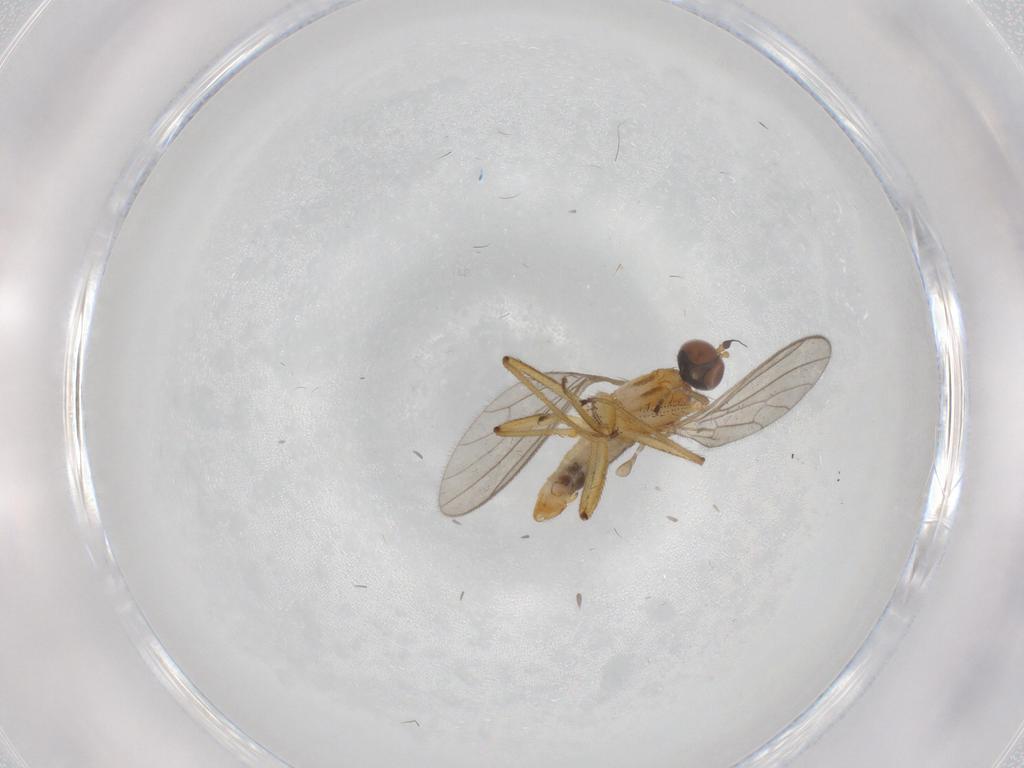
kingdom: Animalia
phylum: Arthropoda
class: Insecta
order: Diptera
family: Empididae
